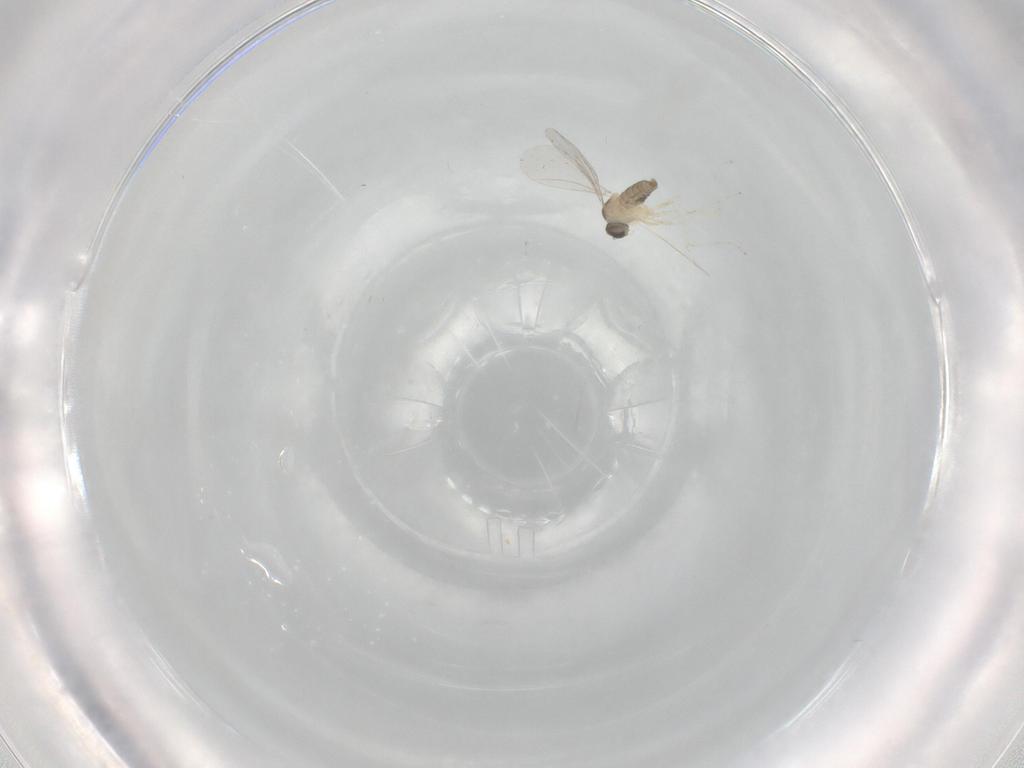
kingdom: Animalia
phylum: Arthropoda
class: Insecta
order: Diptera
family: Cecidomyiidae
